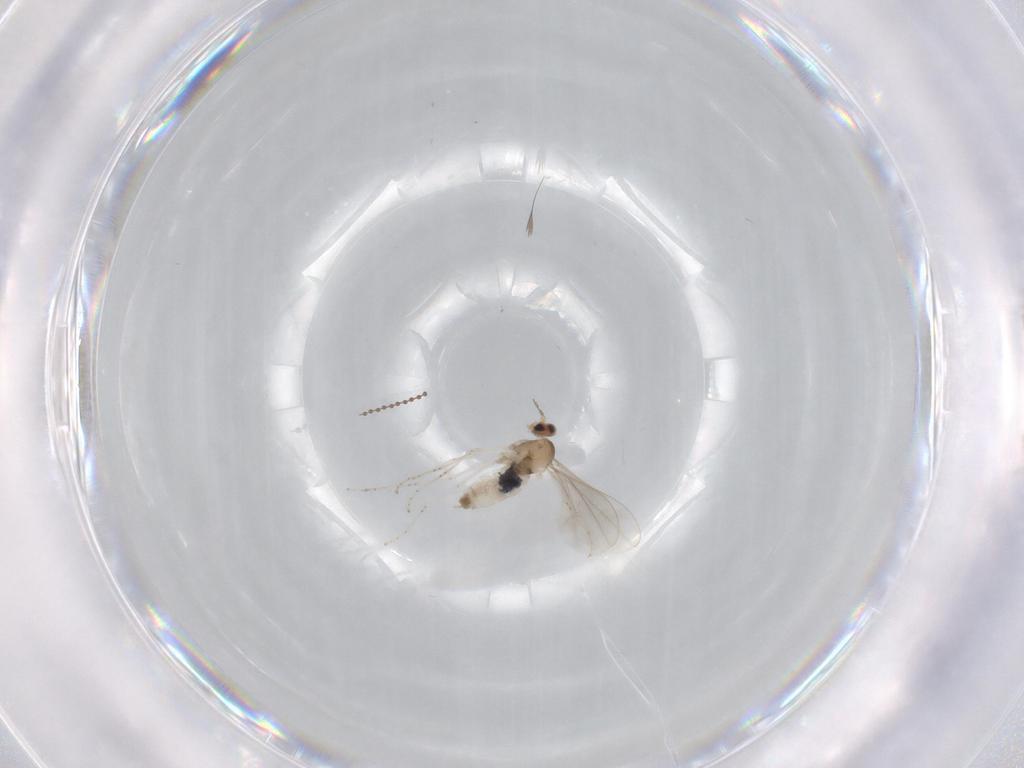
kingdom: Animalia
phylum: Arthropoda
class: Insecta
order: Diptera
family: Cecidomyiidae
